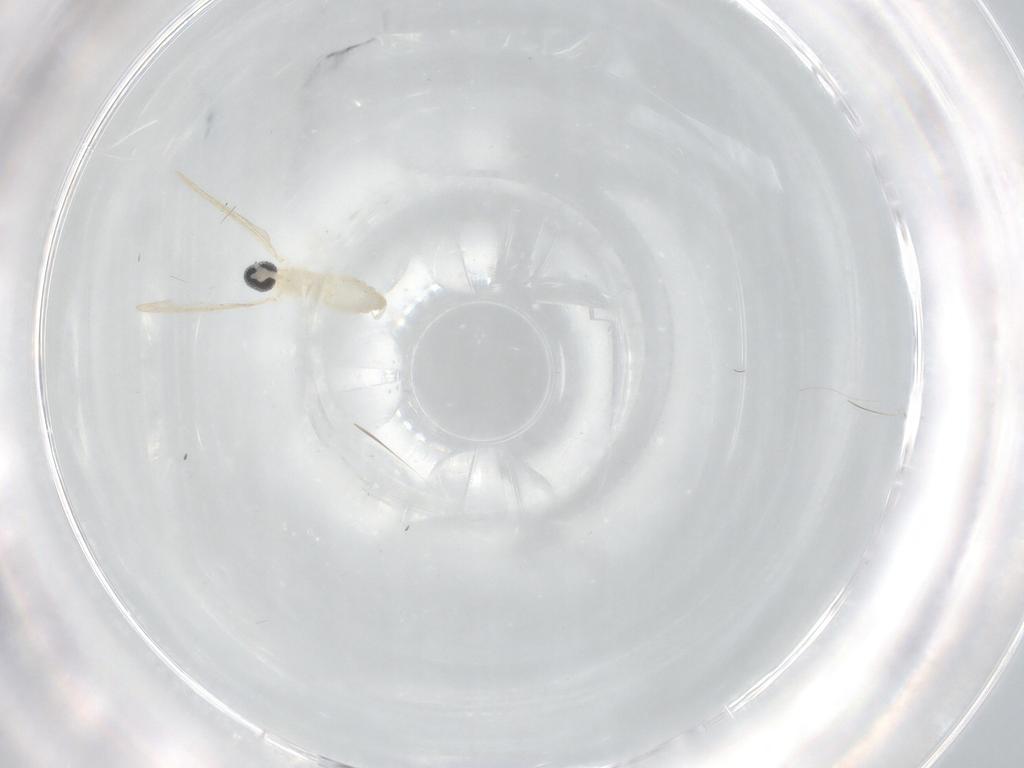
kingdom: Animalia
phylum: Arthropoda
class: Insecta
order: Diptera
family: Cecidomyiidae
